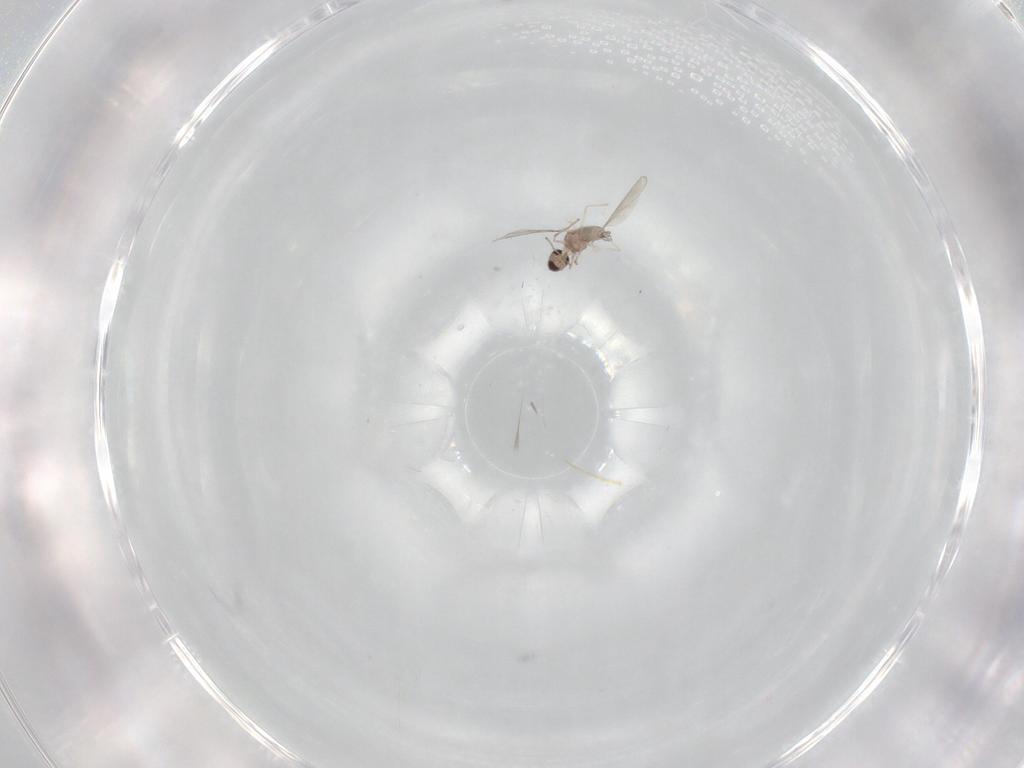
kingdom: Animalia
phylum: Arthropoda
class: Insecta
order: Diptera
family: Cecidomyiidae
